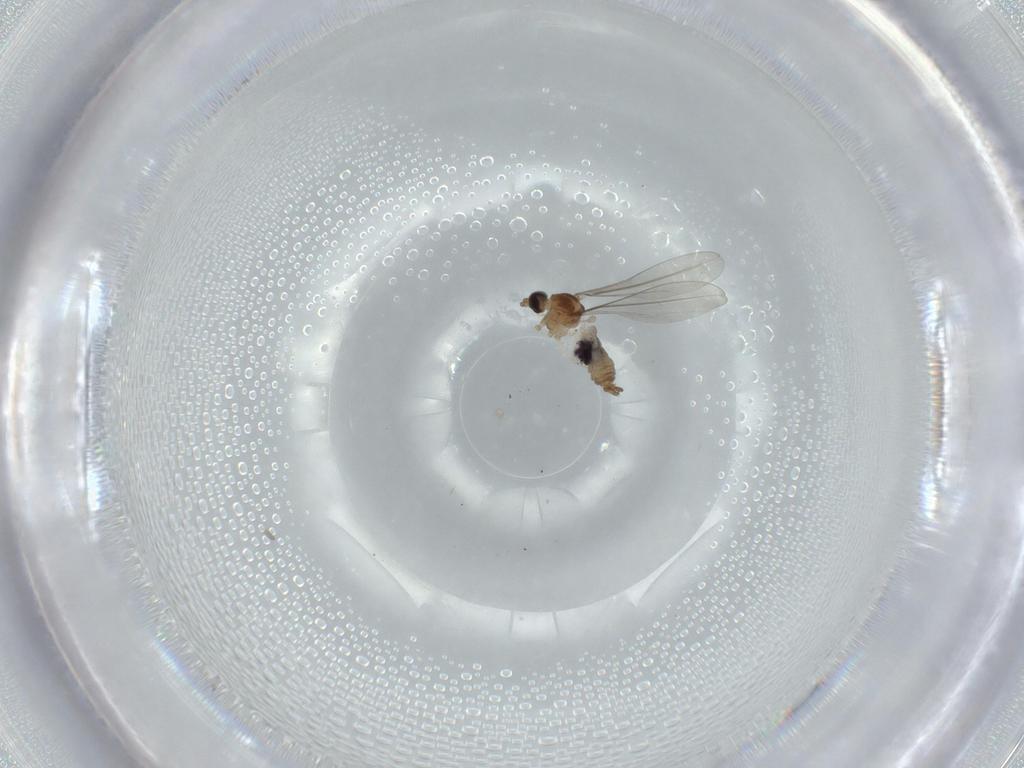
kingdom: Animalia
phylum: Arthropoda
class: Insecta
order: Diptera
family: Cecidomyiidae
